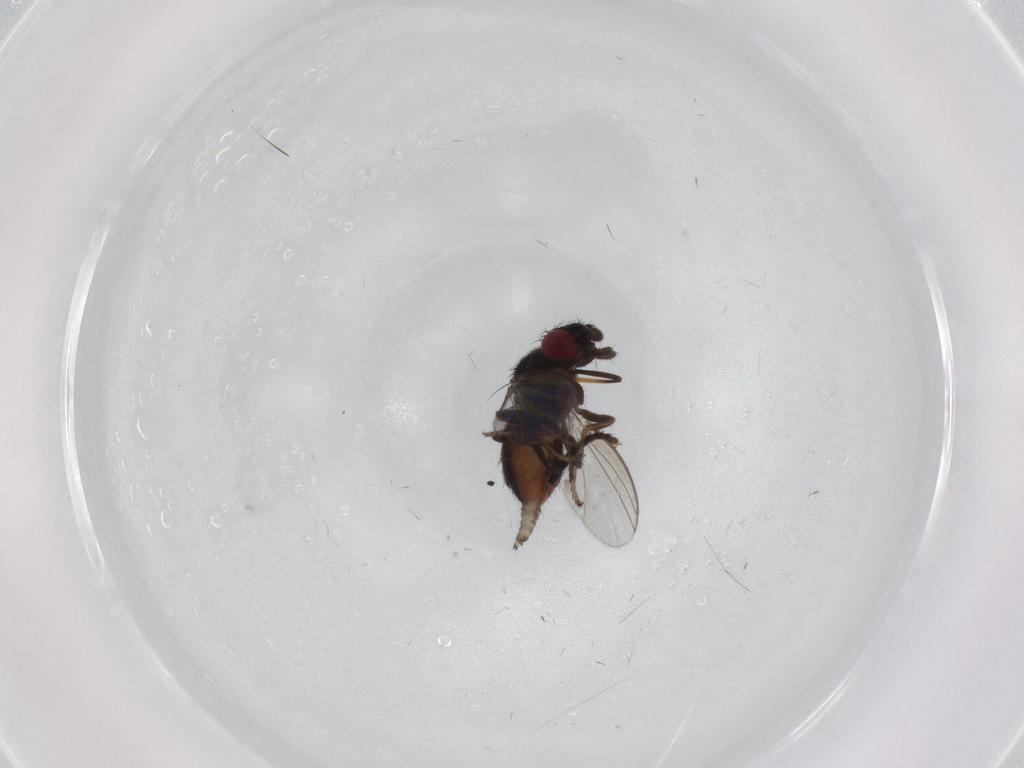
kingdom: Animalia
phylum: Arthropoda
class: Insecta
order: Diptera
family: Milichiidae
